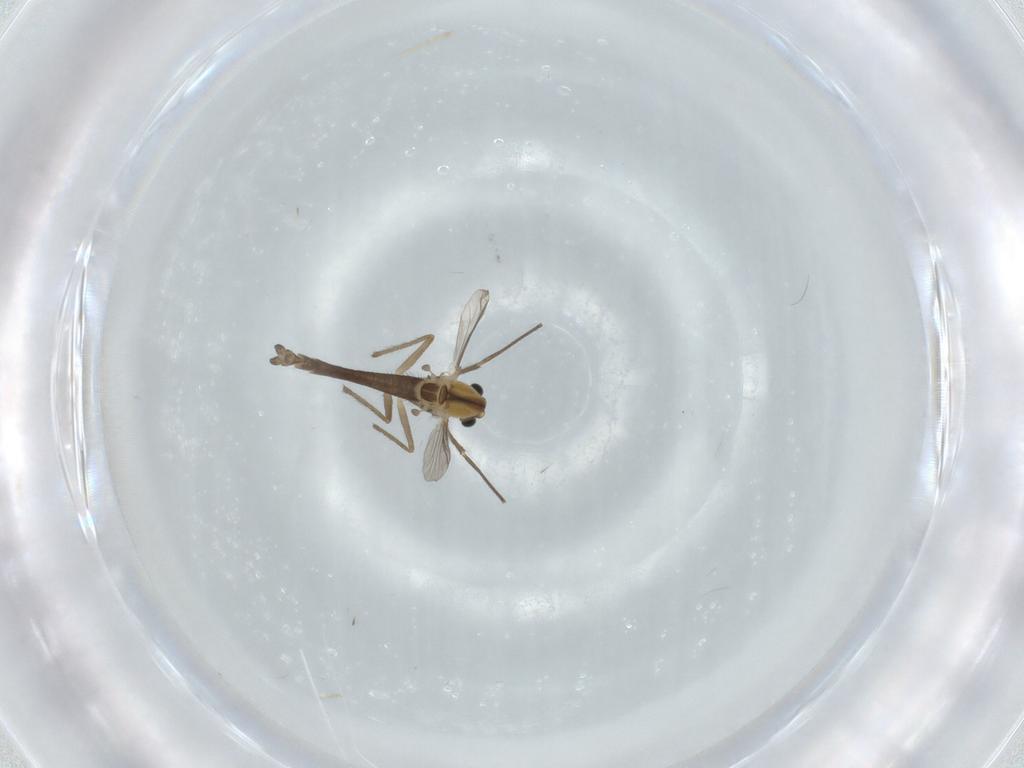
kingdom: Animalia
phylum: Arthropoda
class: Insecta
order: Diptera
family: Chironomidae
